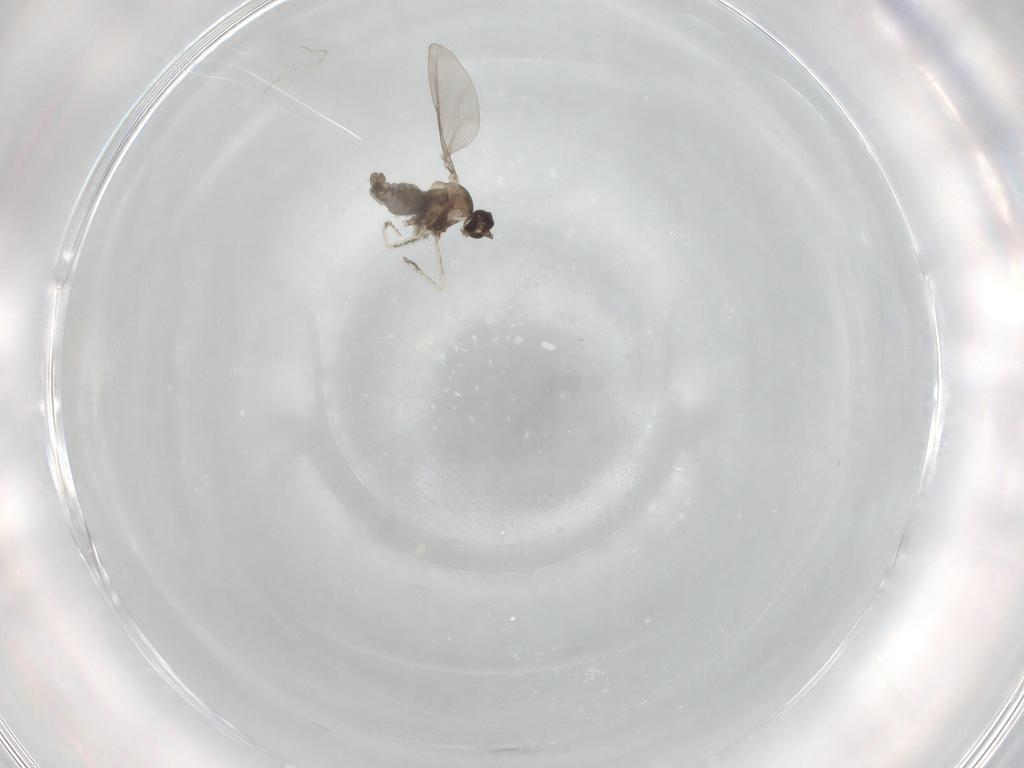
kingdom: Animalia
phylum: Arthropoda
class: Insecta
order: Diptera
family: Cecidomyiidae
